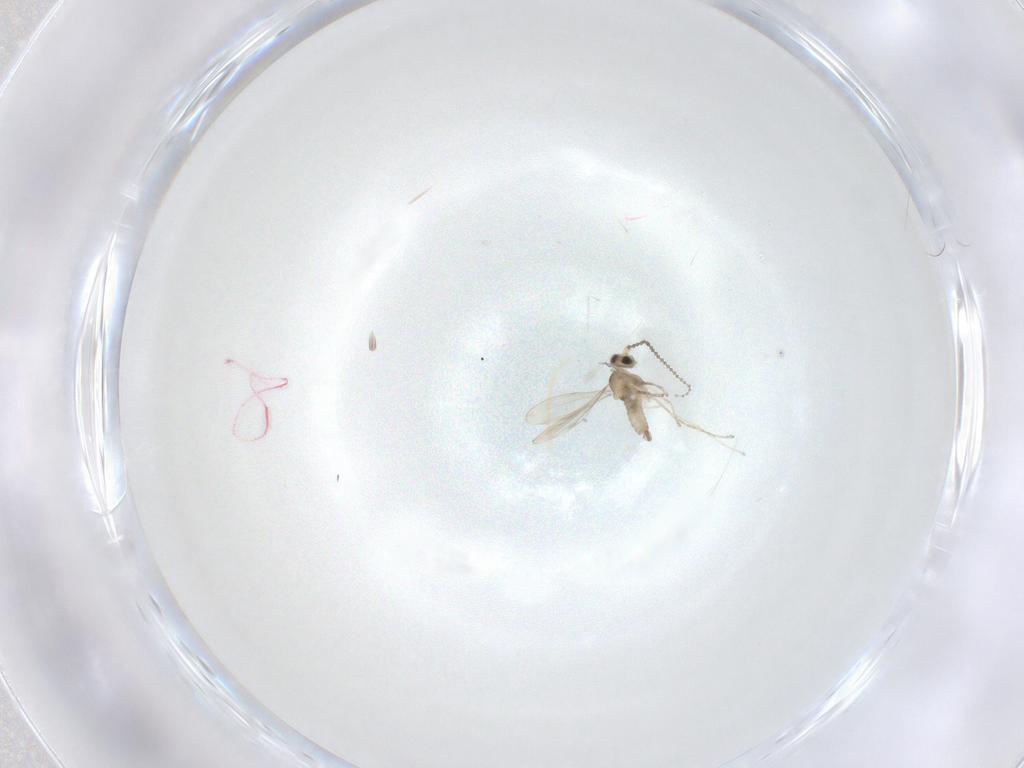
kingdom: Animalia
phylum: Arthropoda
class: Insecta
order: Diptera
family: Cecidomyiidae
